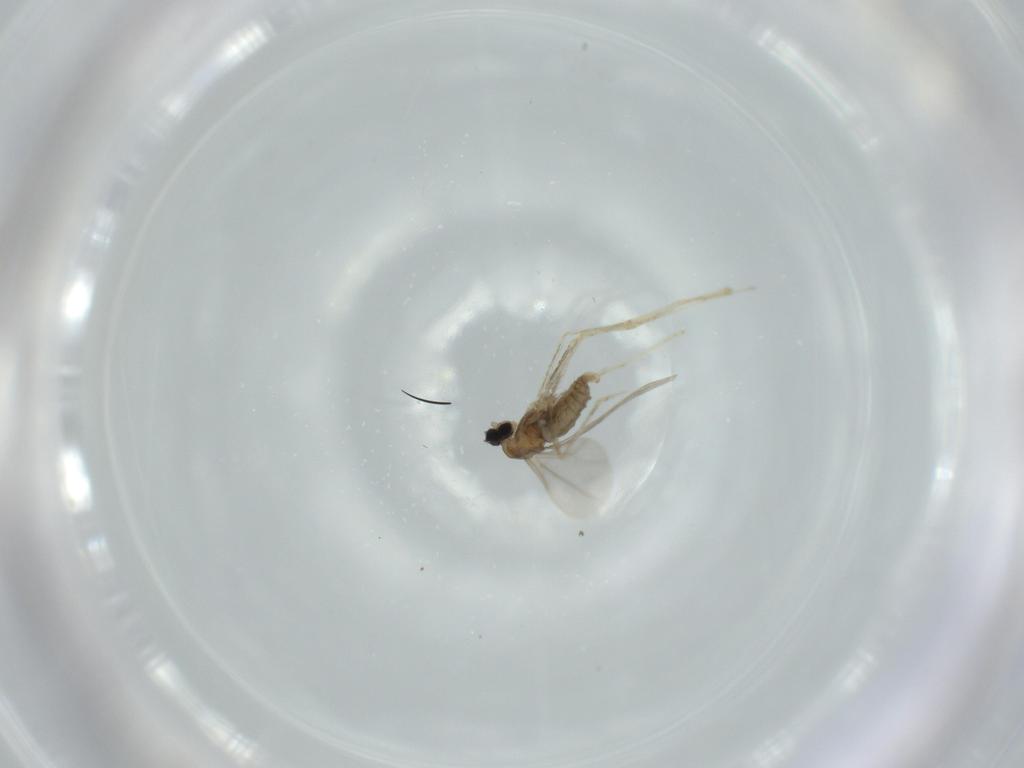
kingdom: Animalia
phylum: Arthropoda
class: Insecta
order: Diptera
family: Cecidomyiidae
